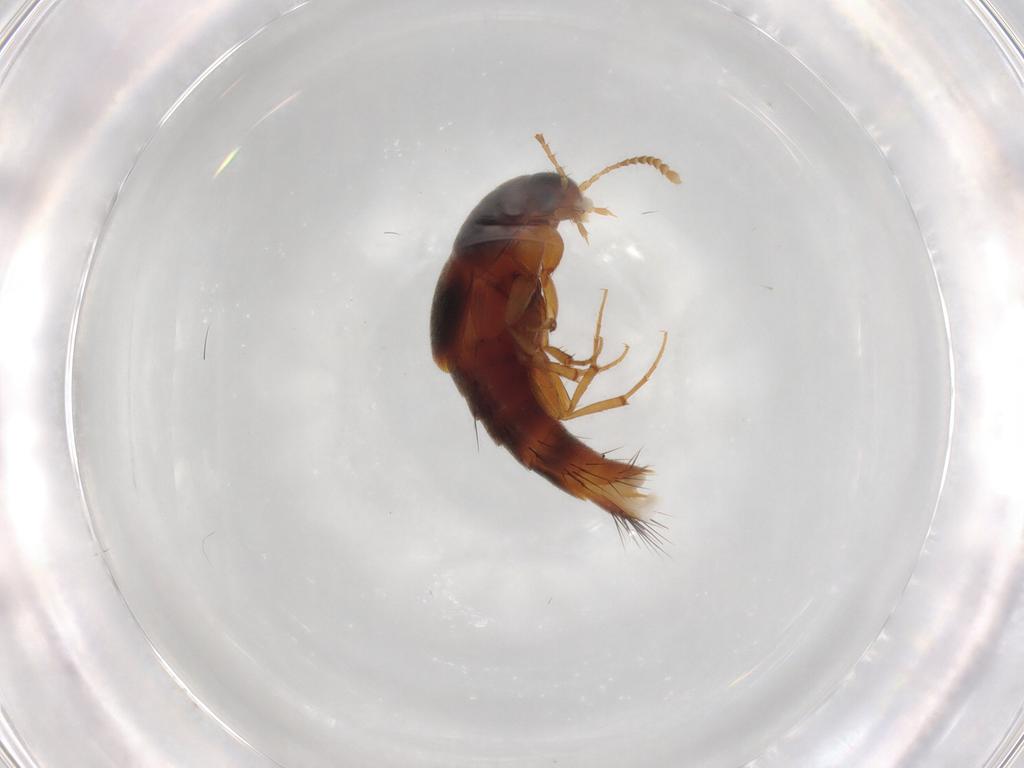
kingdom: Animalia
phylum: Arthropoda
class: Insecta
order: Coleoptera
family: Staphylinidae
